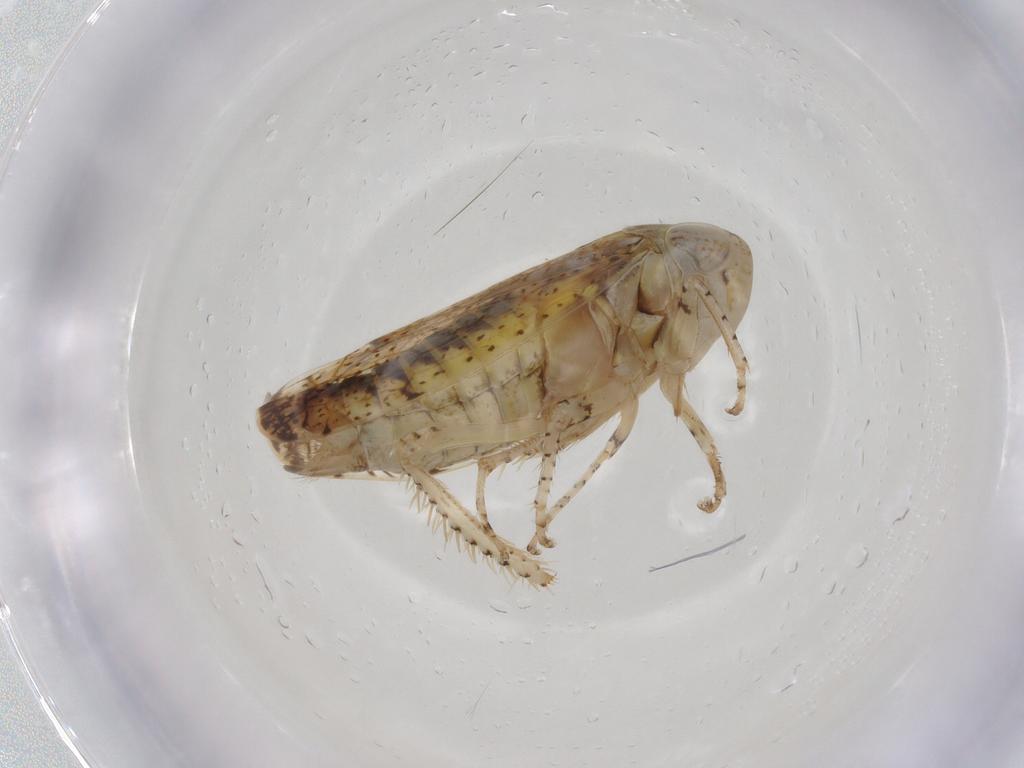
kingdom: Animalia
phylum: Arthropoda
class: Insecta
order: Hemiptera
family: Cicadellidae
